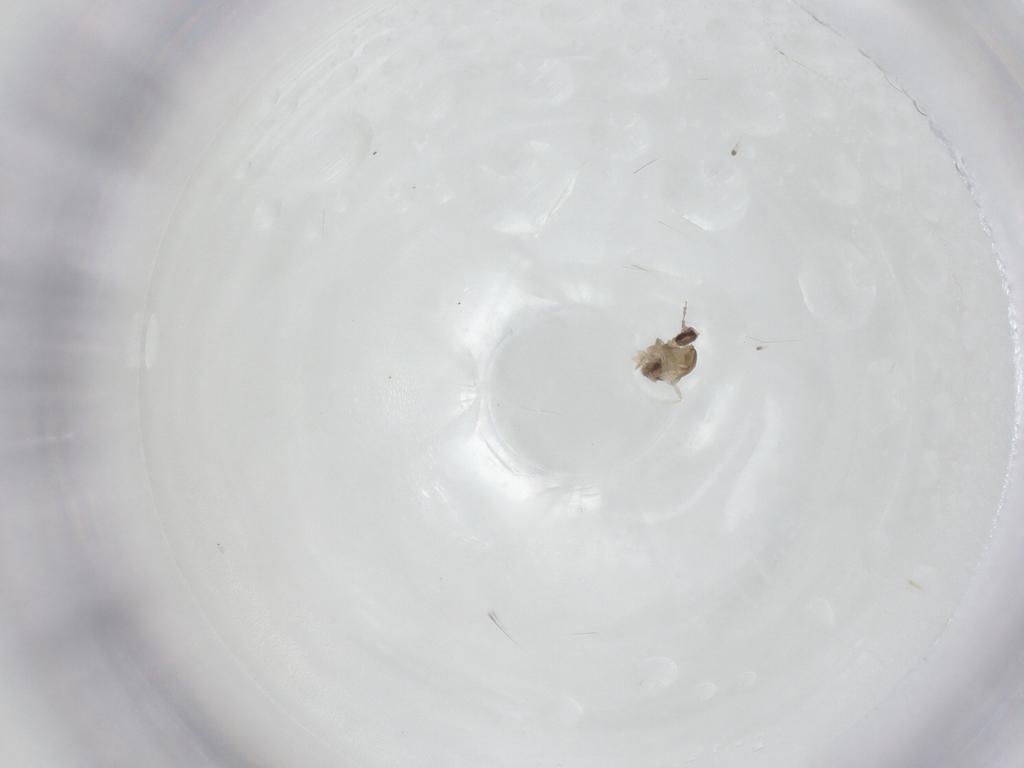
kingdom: Animalia
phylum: Arthropoda
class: Insecta
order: Diptera
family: Cecidomyiidae
